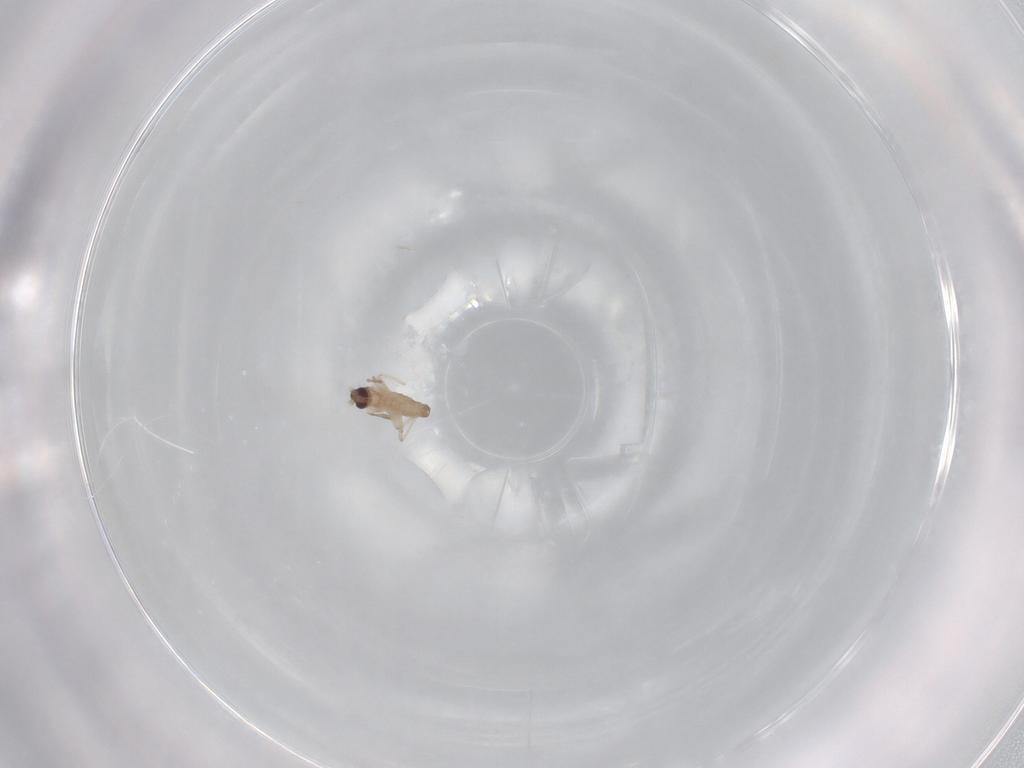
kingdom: Animalia
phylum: Arthropoda
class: Insecta
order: Diptera
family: Cecidomyiidae
